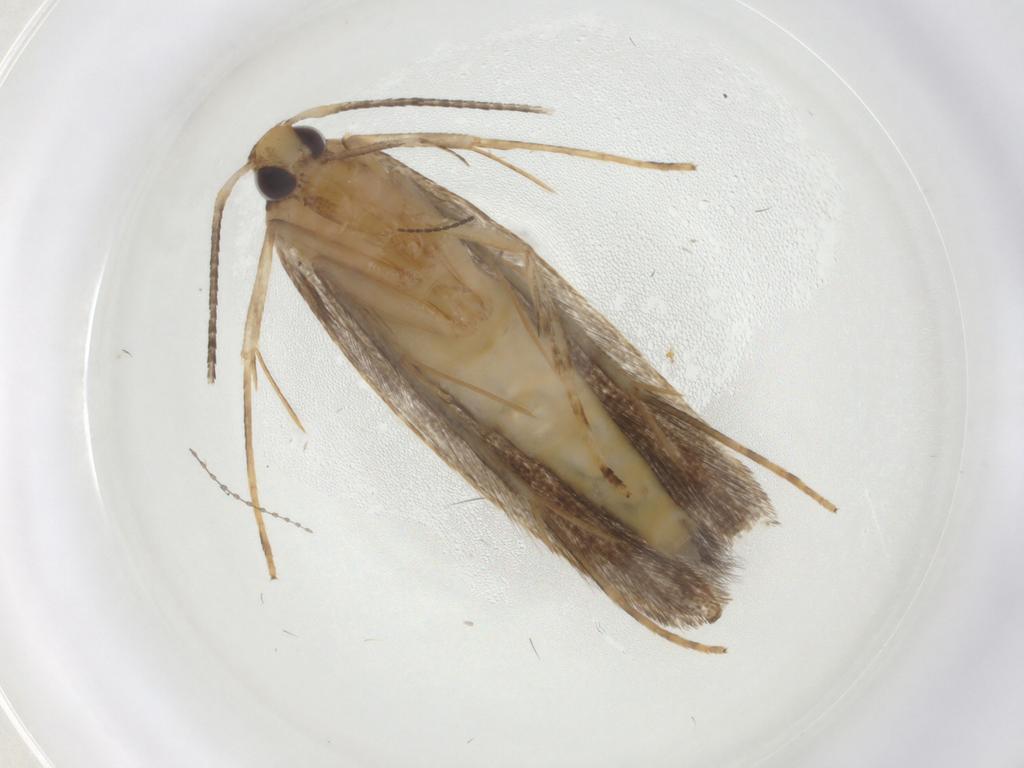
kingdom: Animalia
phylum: Arthropoda
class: Insecta
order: Lepidoptera
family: Pterolonchidae
